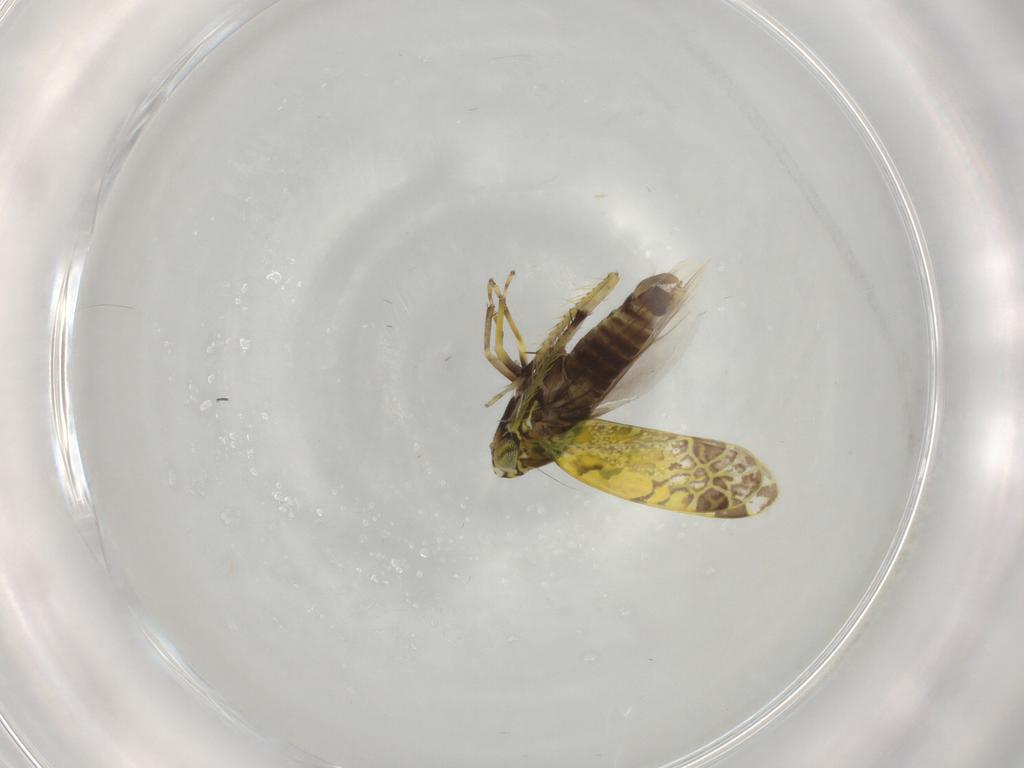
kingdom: Animalia
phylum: Arthropoda
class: Insecta
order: Hemiptera
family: Cicadellidae
